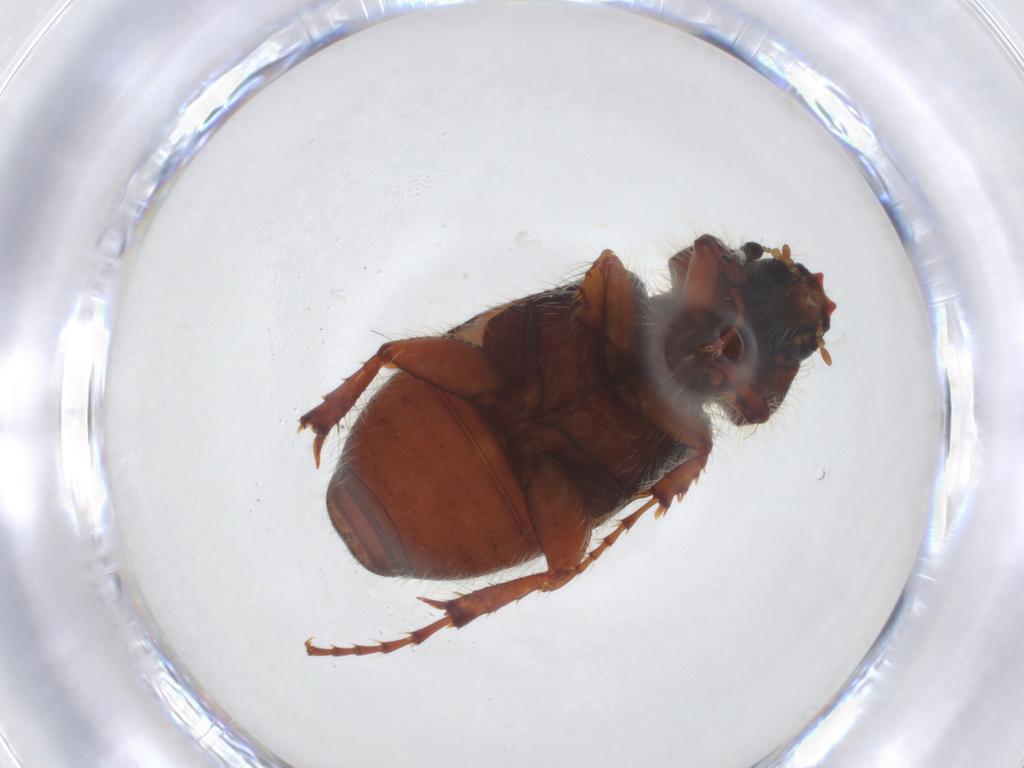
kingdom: Animalia
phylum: Arthropoda
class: Insecta
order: Coleoptera
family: Scarabaeidae
